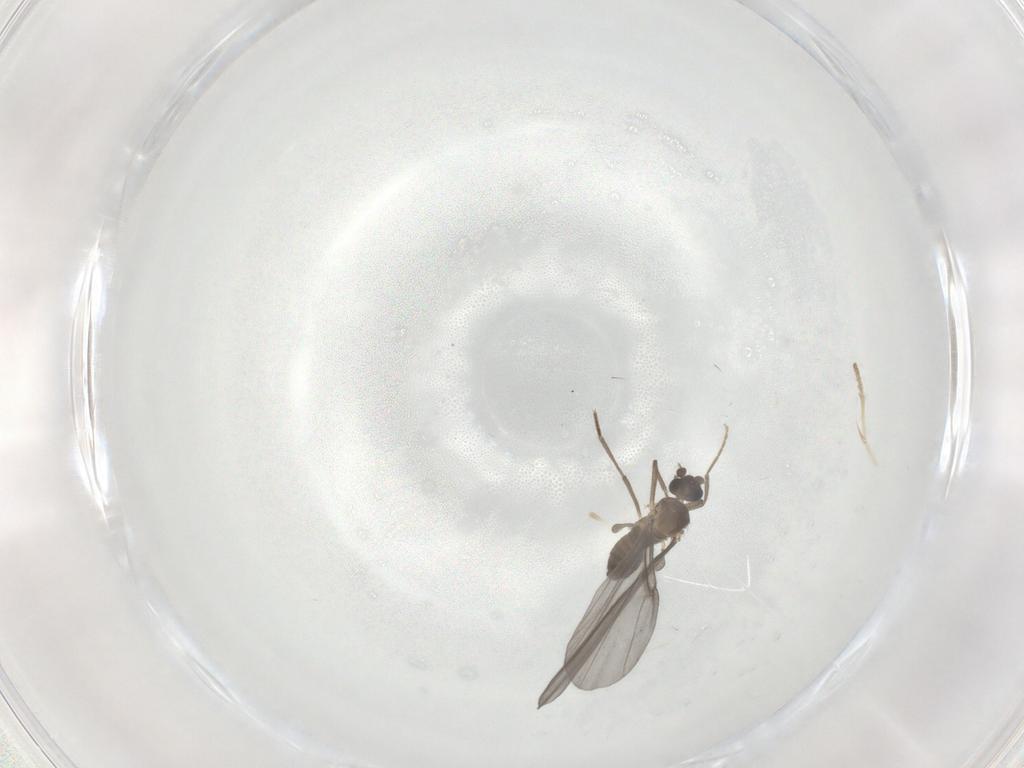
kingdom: Animalia
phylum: Arthropoda
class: Insecta
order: Diptera
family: Phoridae
